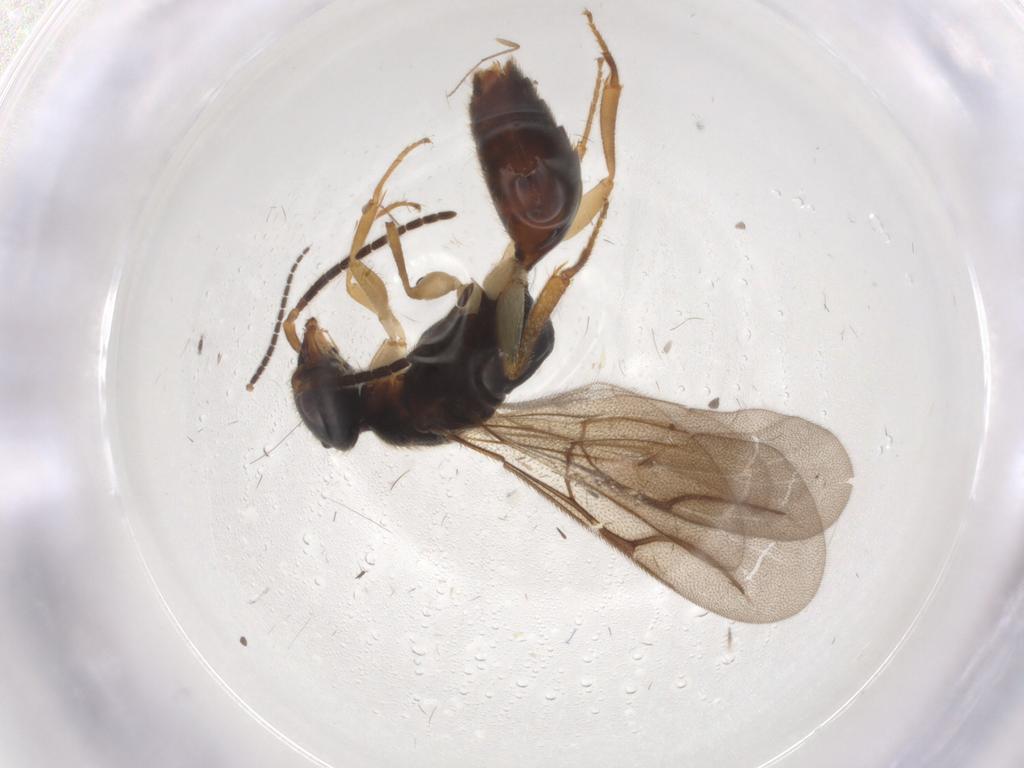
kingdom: Animalia
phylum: Arthropoda
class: Insecta
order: Hymenoptera
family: Bethylidae
